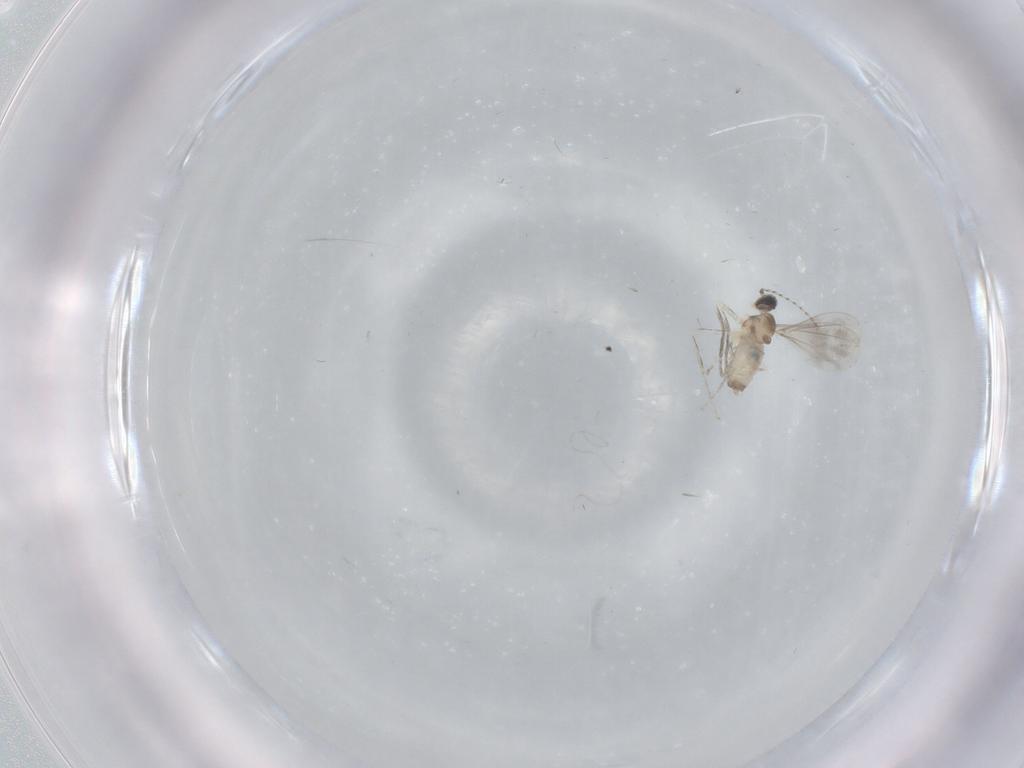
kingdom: Animalia
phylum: Arthropoda
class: Insecta
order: Diptera
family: Cecidomyiidae
